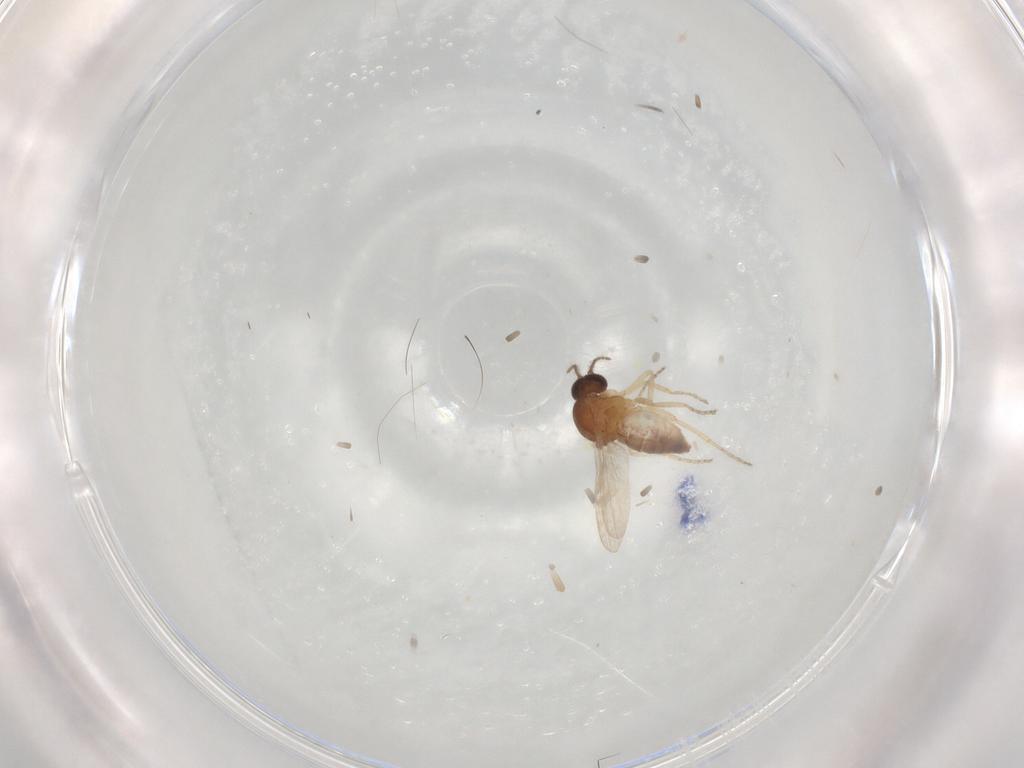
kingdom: Animalia
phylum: Arthropoda
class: Insecta
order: Diptera
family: Ceratopogonidae
